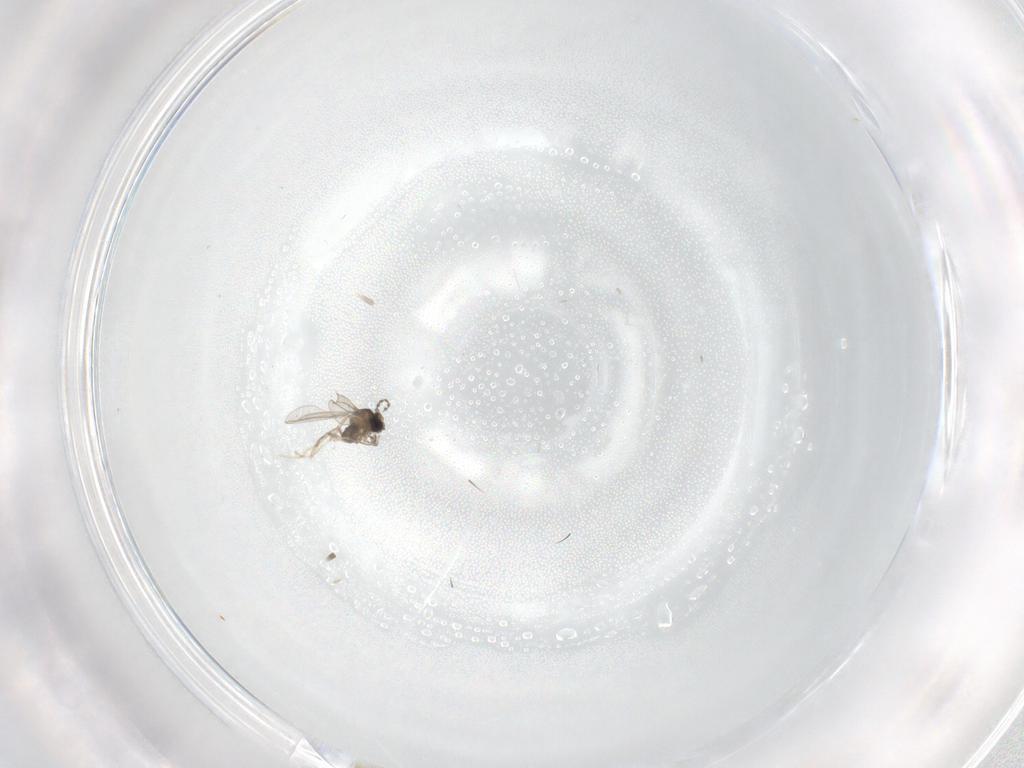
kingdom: Animalia
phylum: Arthropoda
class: Insecta
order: Diptera
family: Cecidomyiidae
